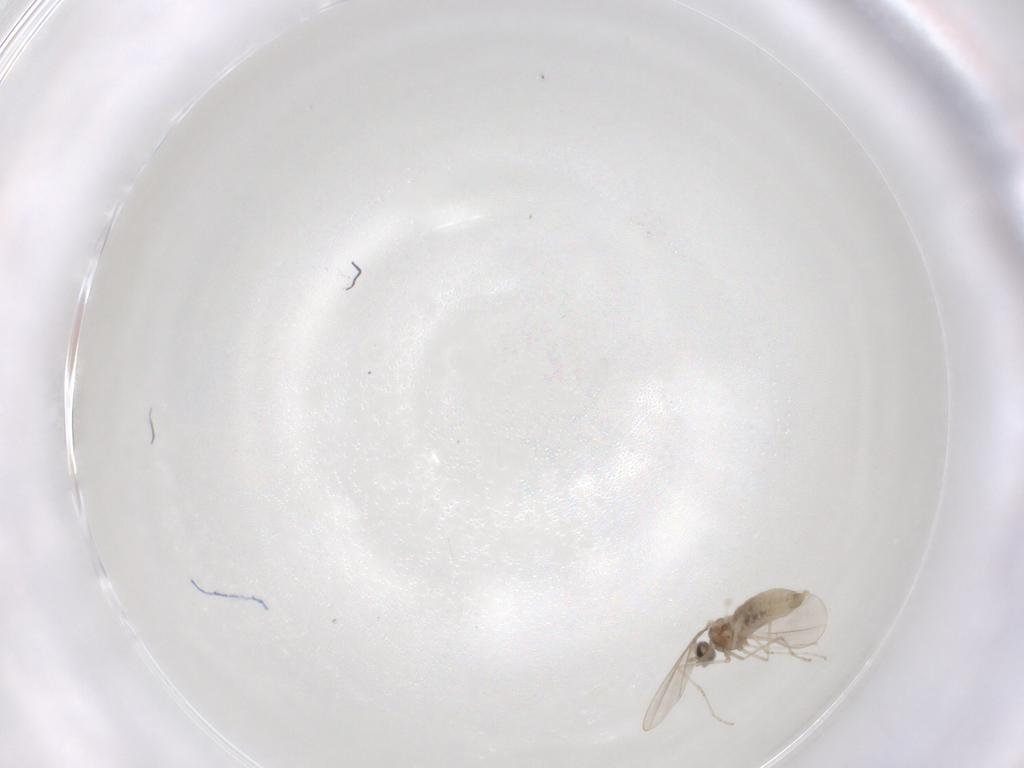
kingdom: Animalia
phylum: Arthropoda
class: Insecta
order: Diptera
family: Cecidomyiidae
